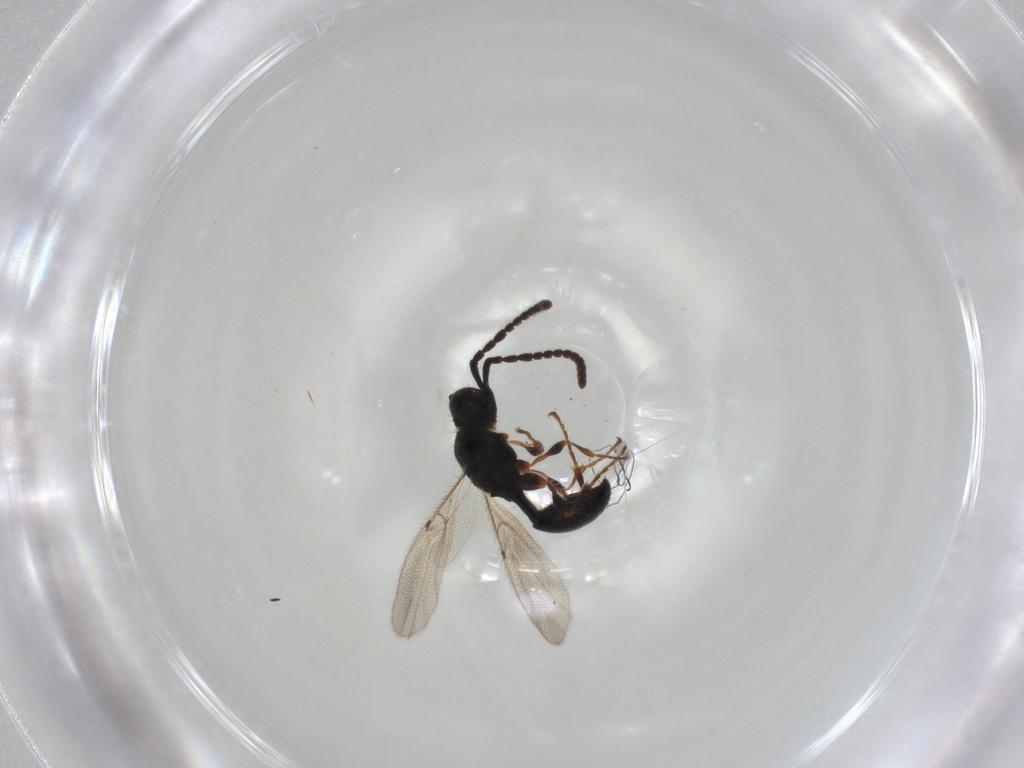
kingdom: Animalia
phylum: Arthropoda
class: Insecta
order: Hymenoptera
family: Diapriidae
